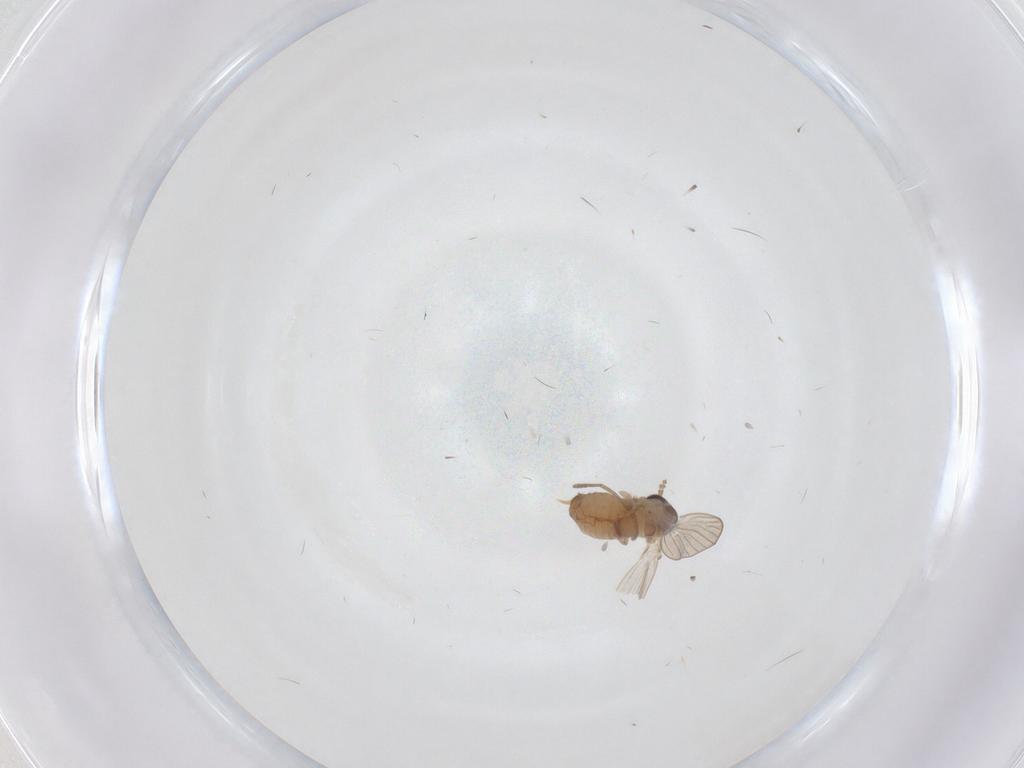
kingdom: Animalia
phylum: Arthropoda
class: Insecta
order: Diptera
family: Psychodidae
